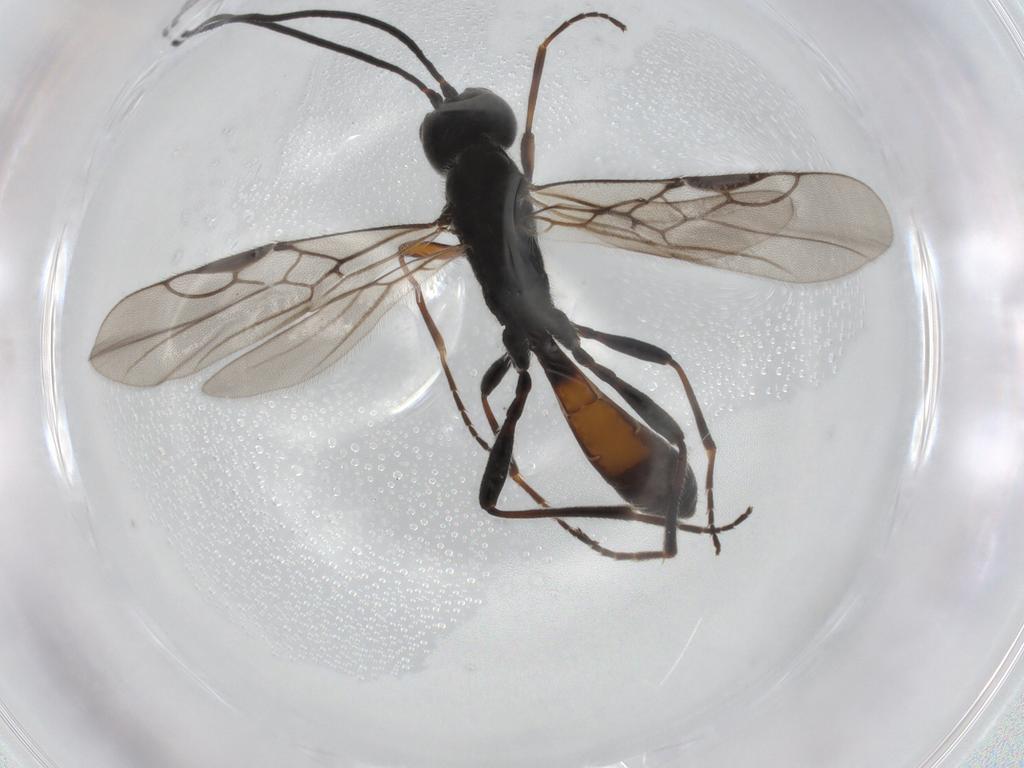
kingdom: Animalia
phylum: Arthropoda
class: Insecta
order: Hymenoptera
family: Braconidae
